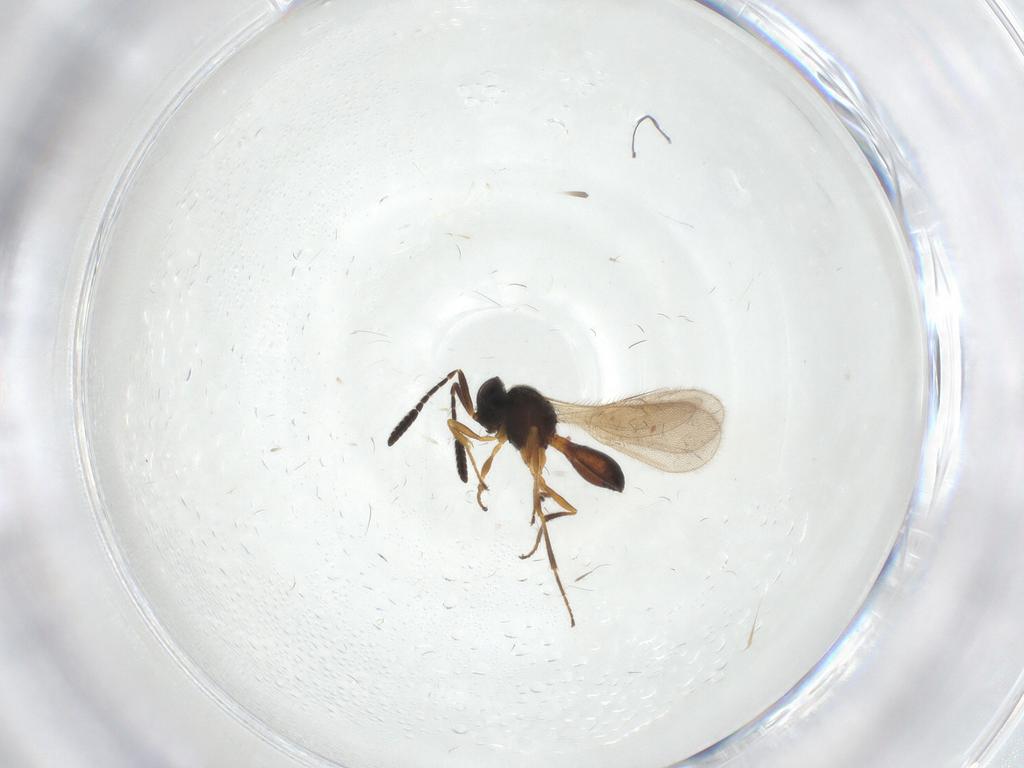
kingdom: Animalia
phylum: Arthropoda
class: Insecta
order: Hymenoptera
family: Scelionidae
